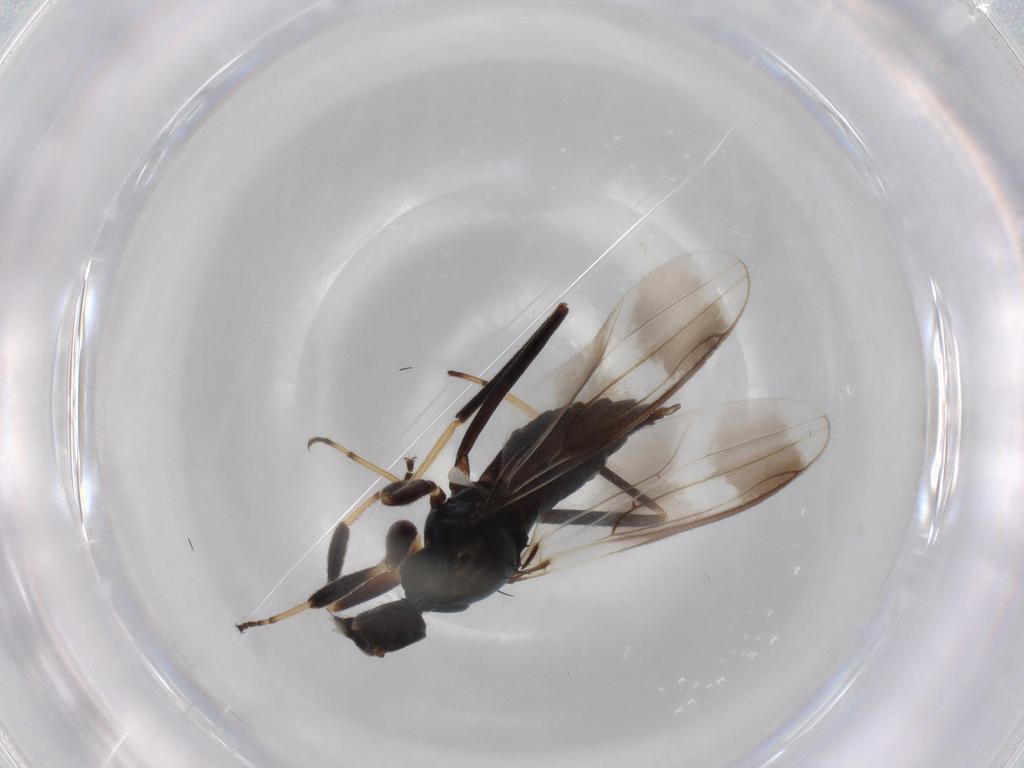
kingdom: Animalia
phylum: Arthropoda
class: Insecta
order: Diptera
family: Hybotidae
